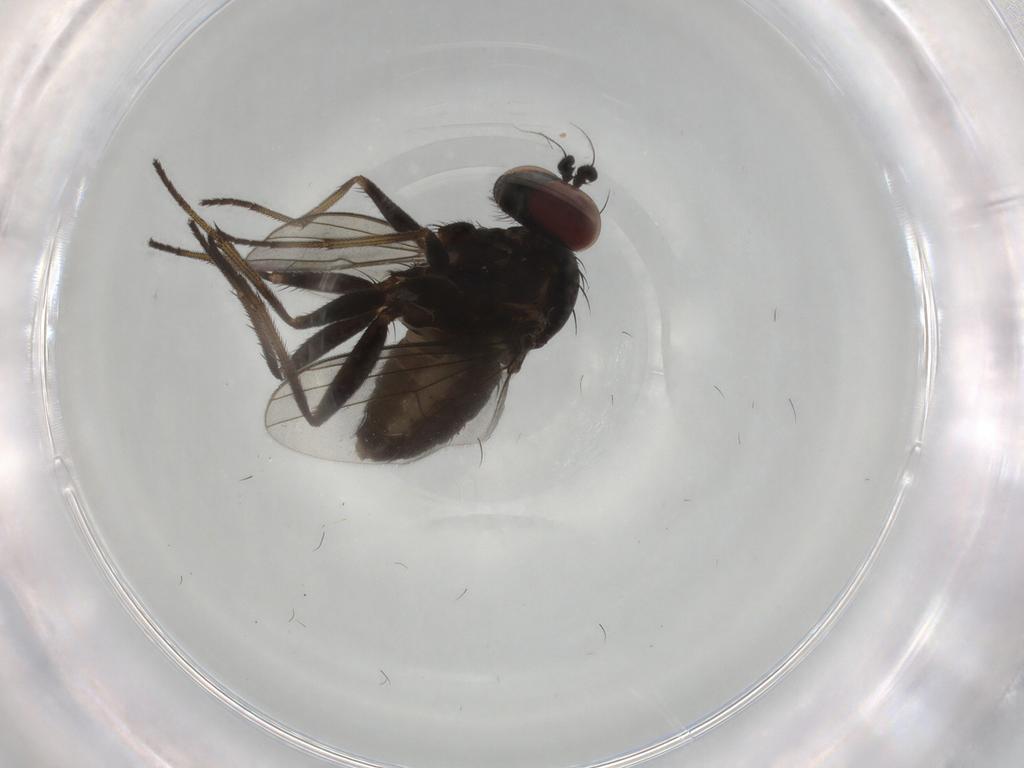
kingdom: Animalia
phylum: Arthropoda
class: Insecta
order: Diptera
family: Dolichopodidae
